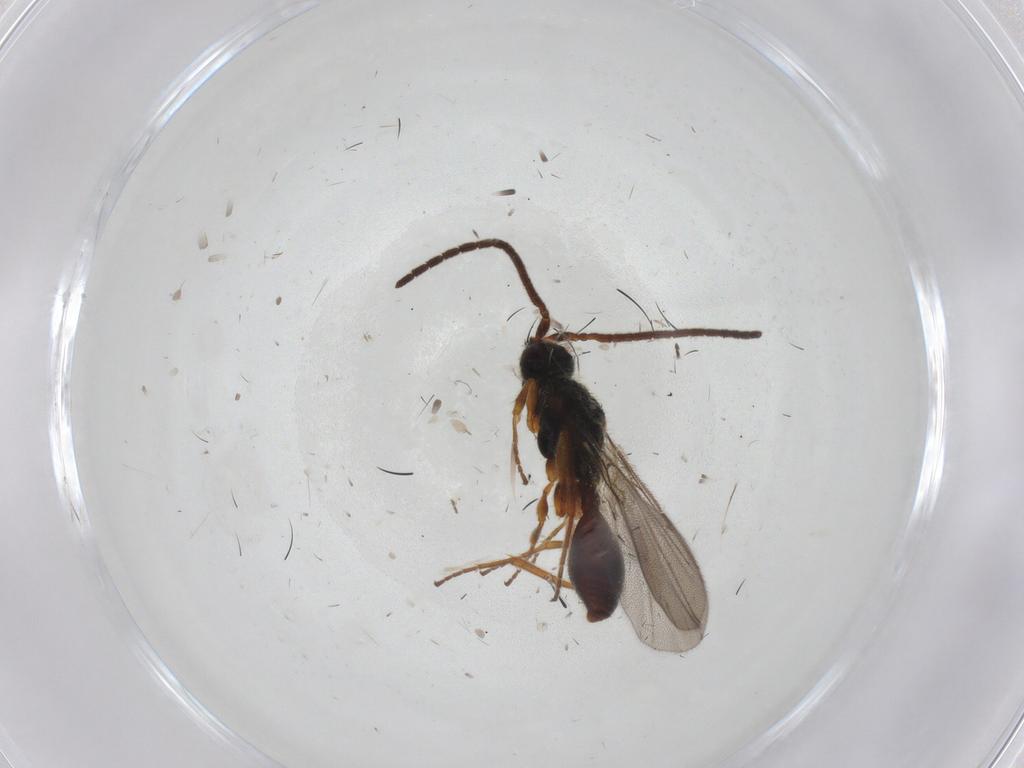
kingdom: Animalia
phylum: Arthropoda
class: Insecta
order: Hymenoptera
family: Diapriidae
